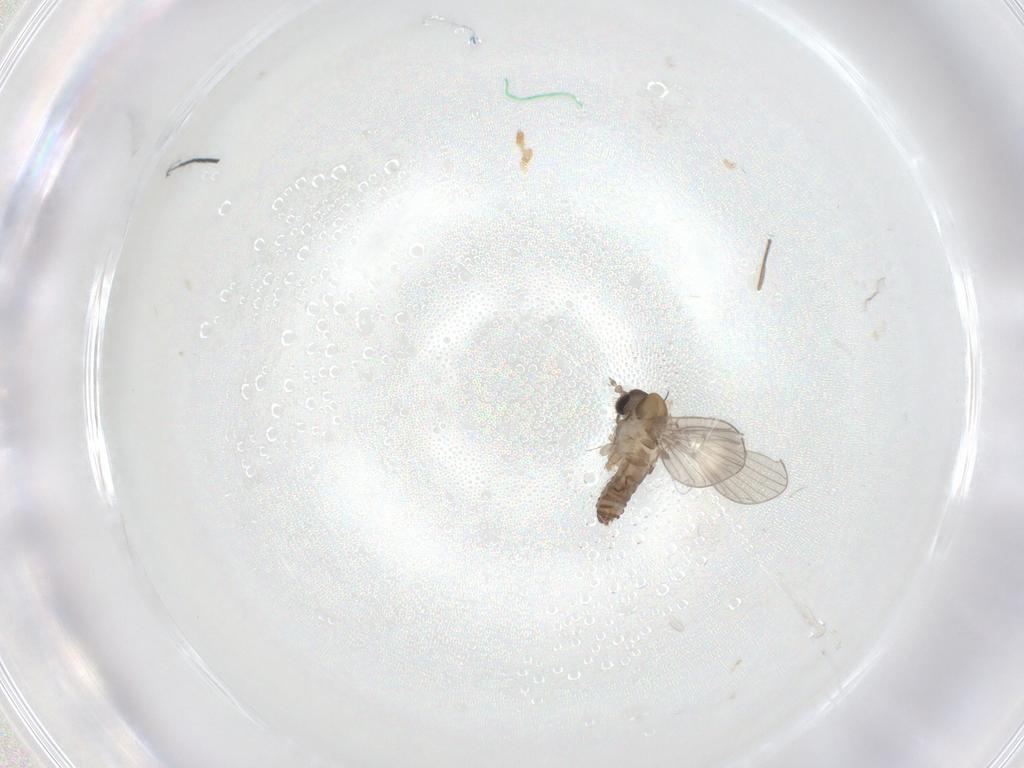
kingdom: Animalia
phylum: Arthropoda
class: Insecta
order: Diptera
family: Psychodidae
